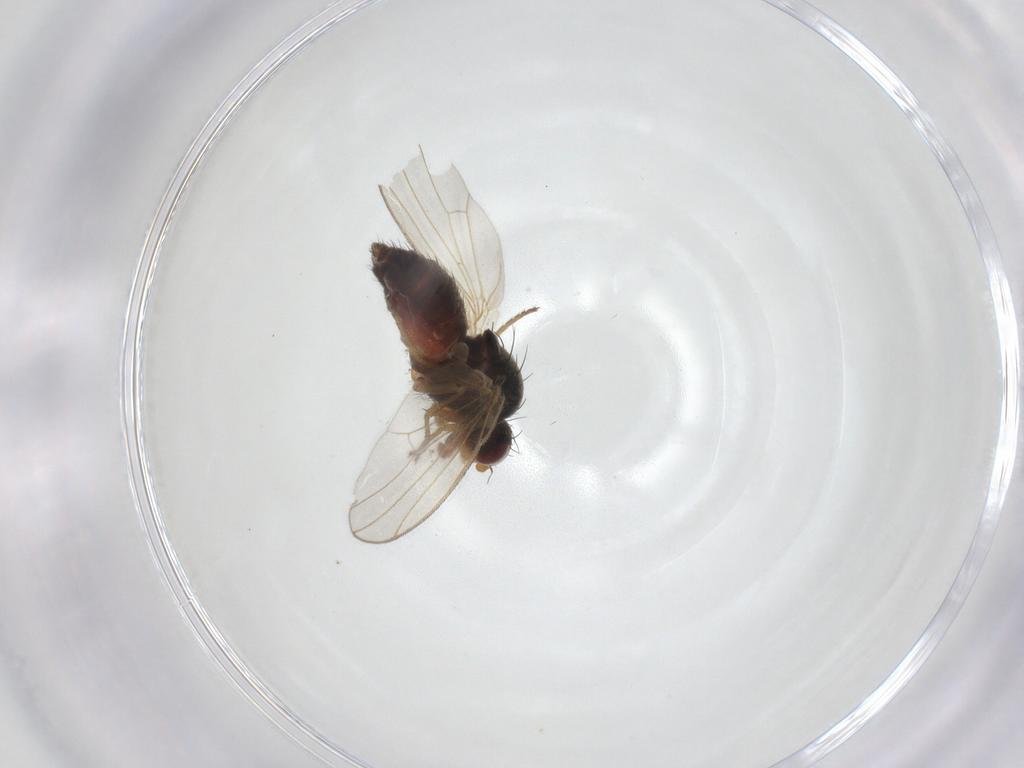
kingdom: Animalia
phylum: Arthropoda
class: Insecta
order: Diptera
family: Heleomyzidae
